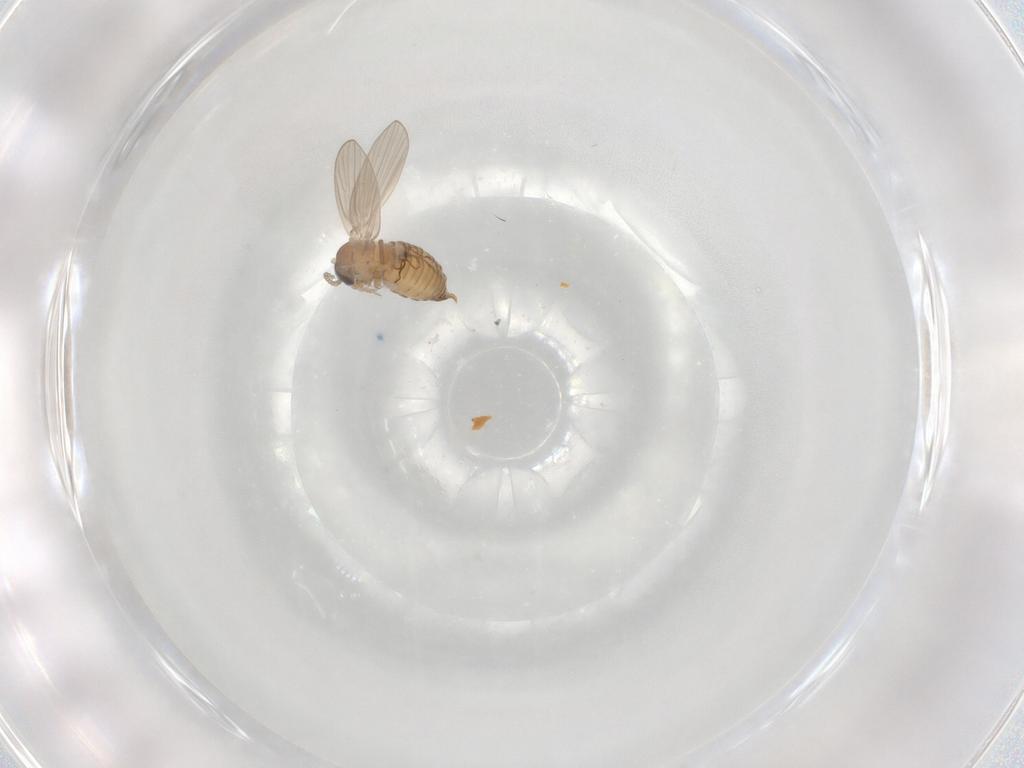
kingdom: Animalia
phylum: Arthropoda
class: Insecta
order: Diptera
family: Psychodidae
